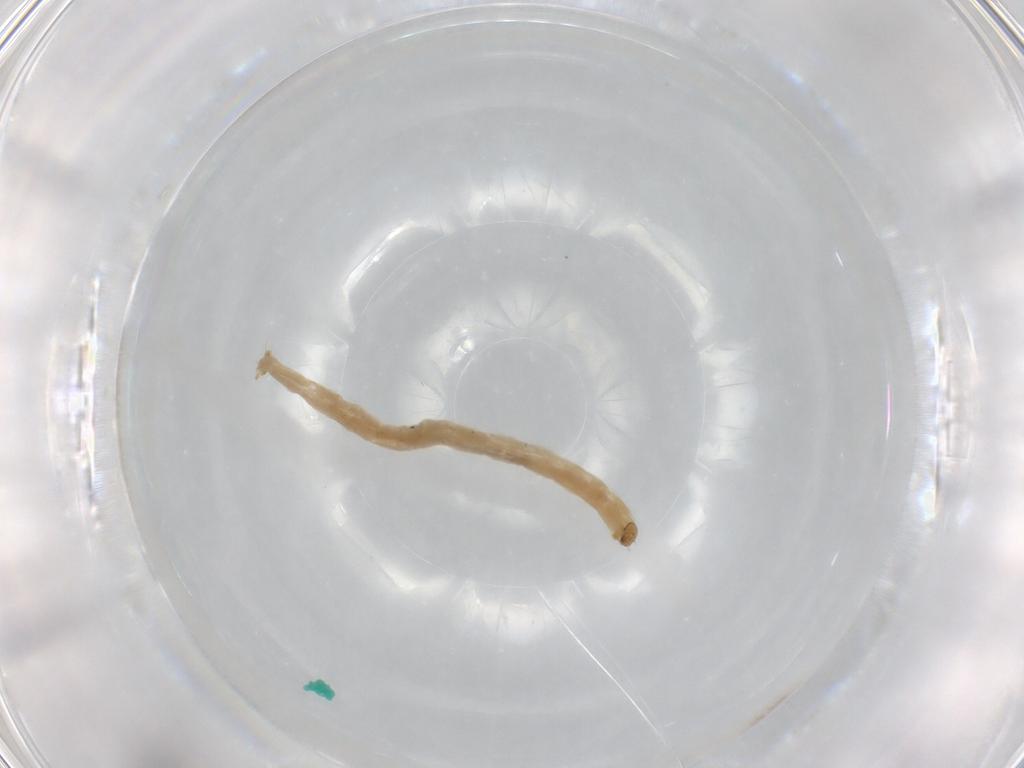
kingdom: Animalia
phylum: Arthropoda
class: Insecta
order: Diptera
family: Chironomidae
